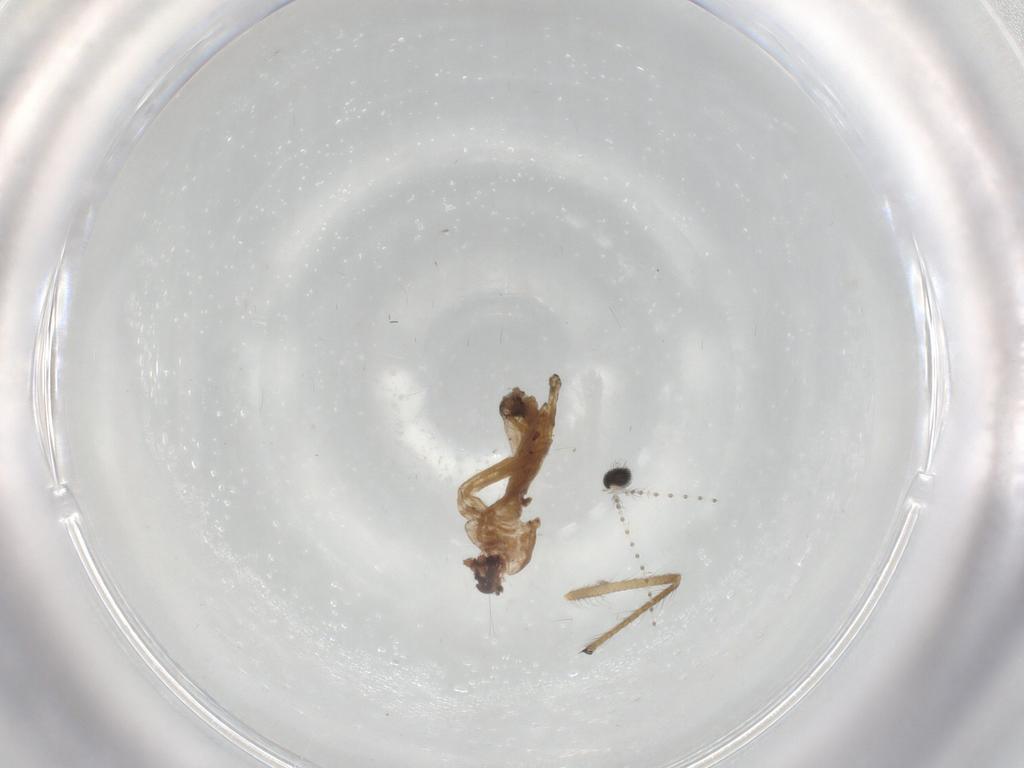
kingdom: Animalia
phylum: Arthropoda
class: Insecta
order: Diptera
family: Chironomidae
